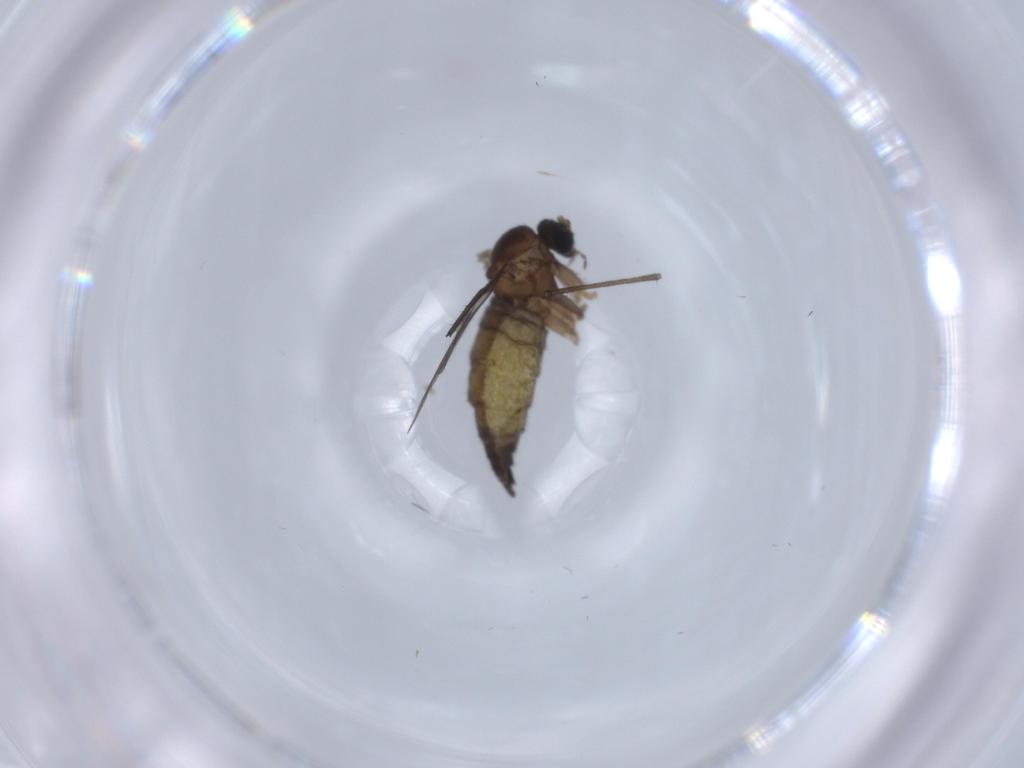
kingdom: Animalia
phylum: Arthropoda
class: Insecta
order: Diptera
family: Sciaridae
